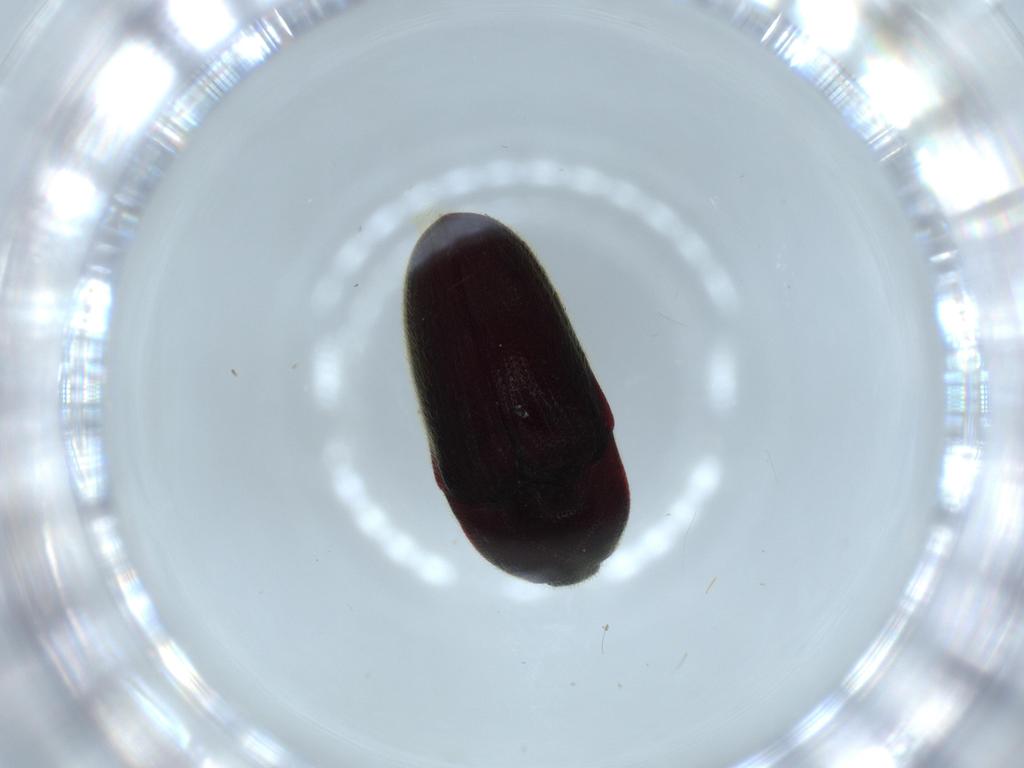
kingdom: Animalia
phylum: Arthropoda
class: Insecta
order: Coleoptera
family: Throscidae
